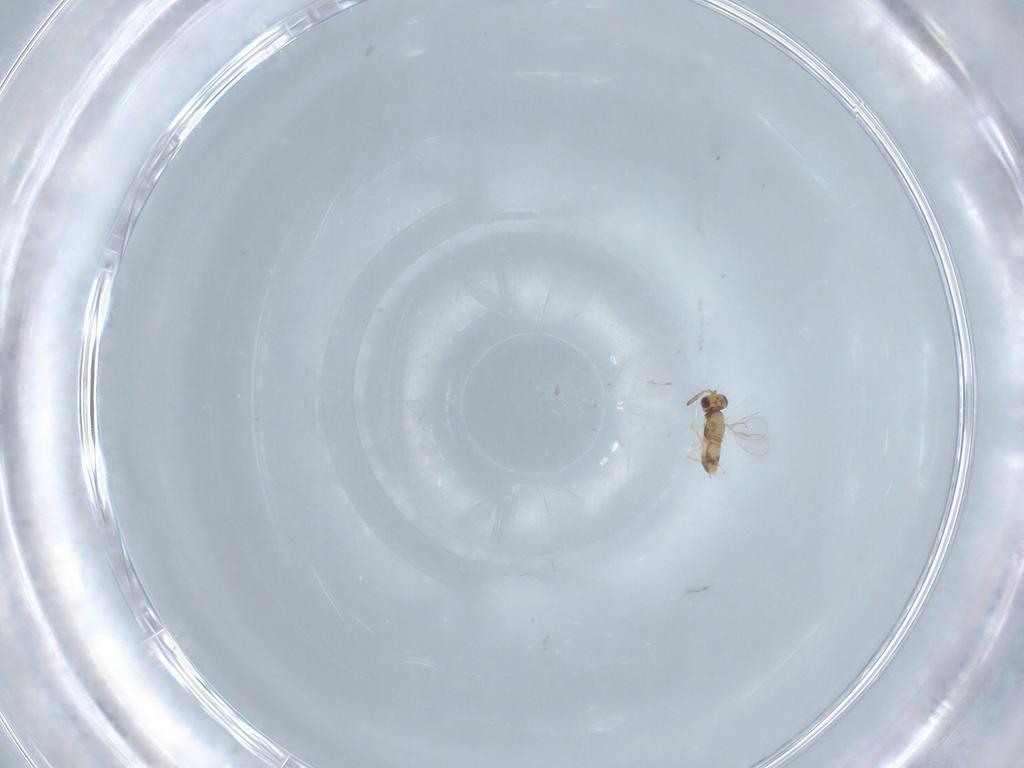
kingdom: Animalia
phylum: Arthropoda
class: Insecta
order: Hymenoptera
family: Aphelinidae
